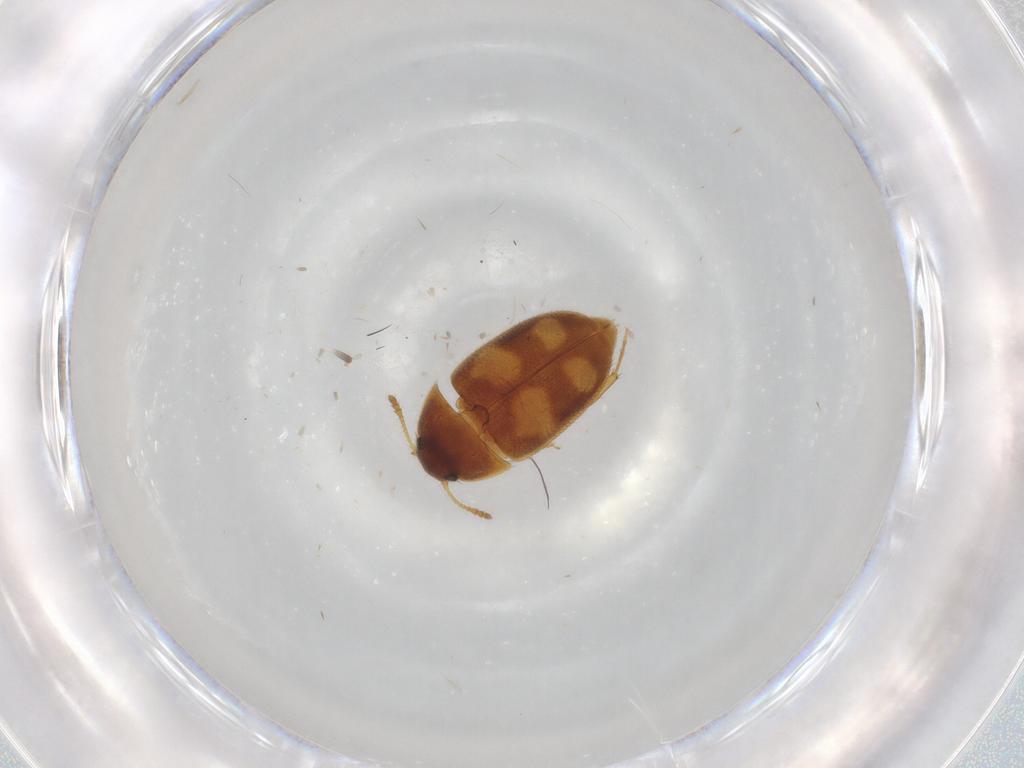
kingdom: Animalia
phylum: Arthropoda
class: Insecta
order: Coleoptera
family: Mycetophagidae
